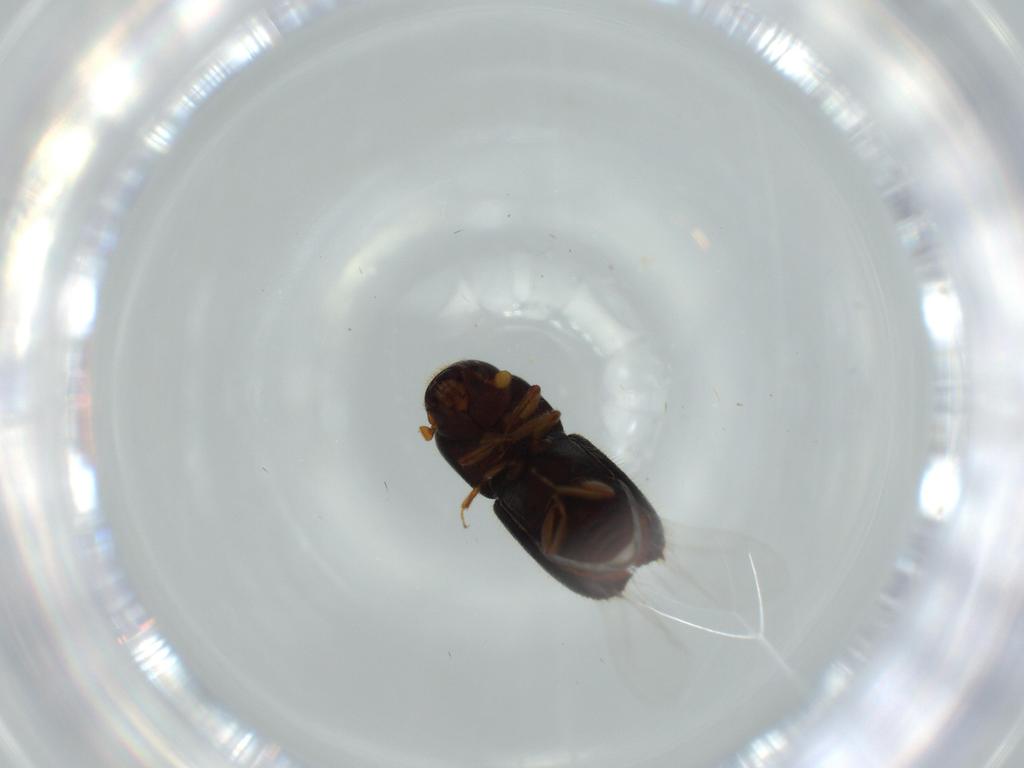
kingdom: Animalia
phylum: Arthropoda
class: Insecta
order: Coleoptera
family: Curculionidae
